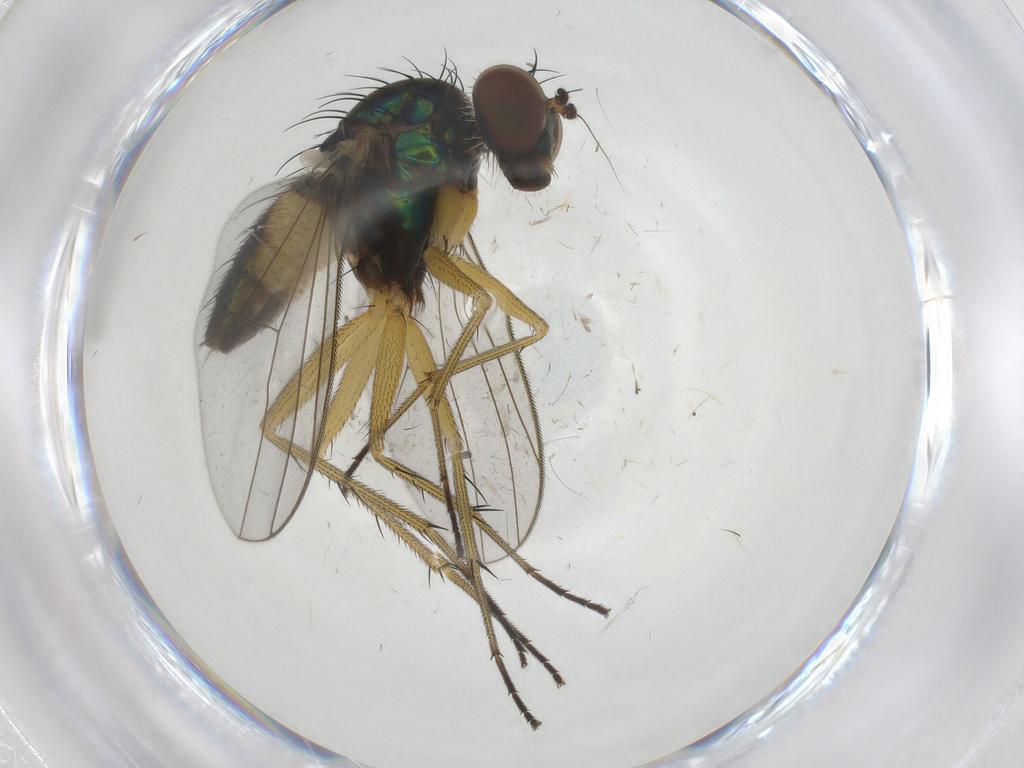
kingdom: Animalia
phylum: Arthropoda
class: Insecta
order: Diptera
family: Dolichopodidae
